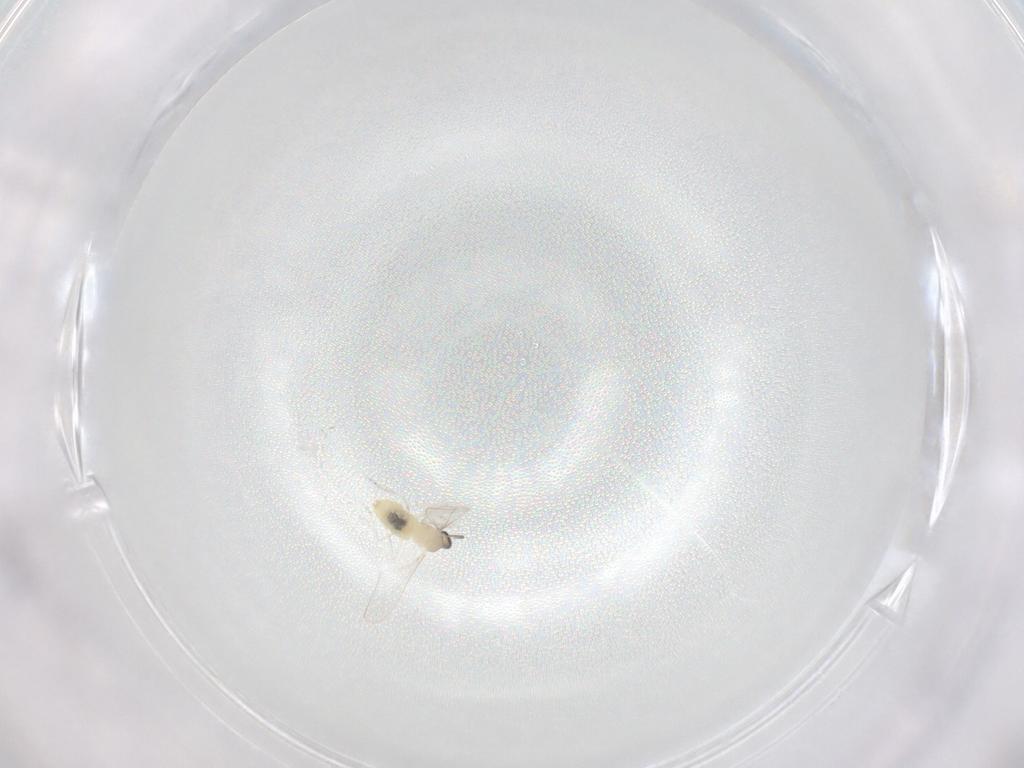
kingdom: Animalia
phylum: Arthropoda
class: Insecta
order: Diptera
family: Cecidomyiidae
